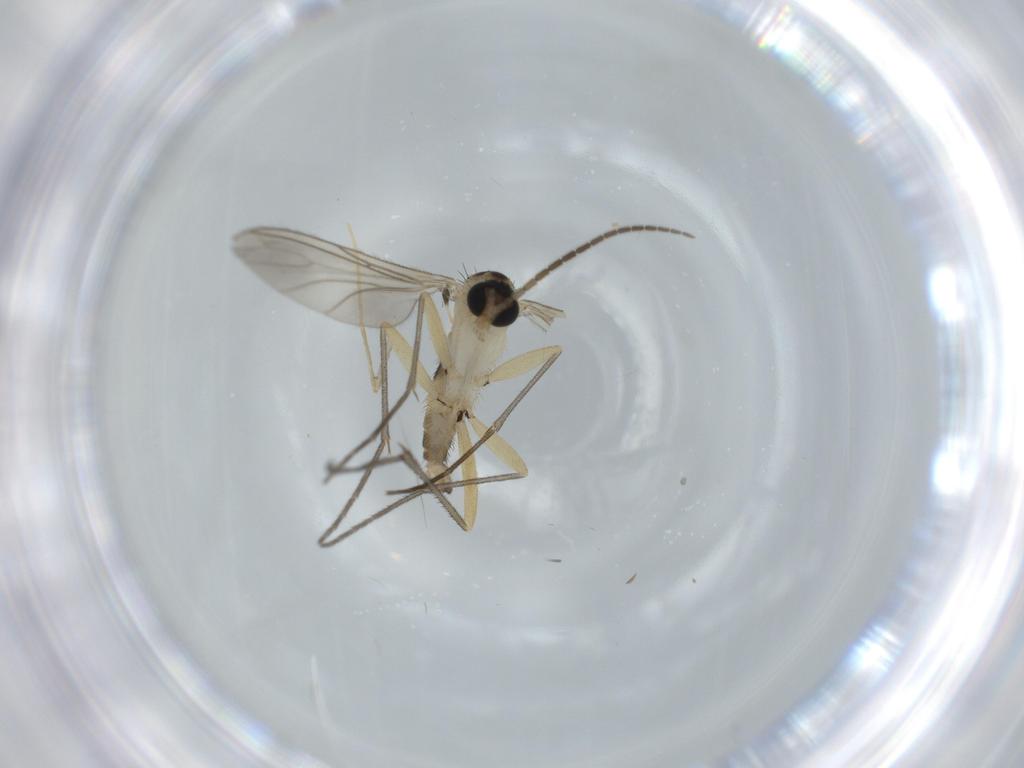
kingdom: Animalia
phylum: Arthropoda
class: Insecta
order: Diptera
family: Sciaridae
